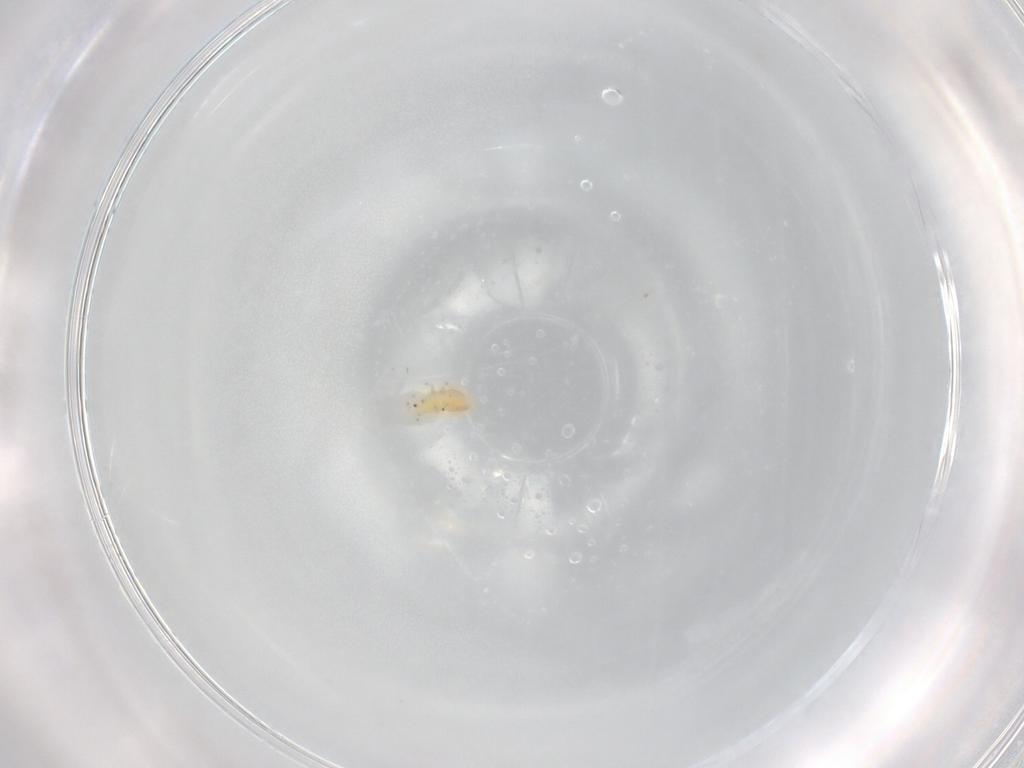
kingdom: Animalia
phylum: Arthropoda
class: Insecta
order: Thysanoptera
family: Thripidae
